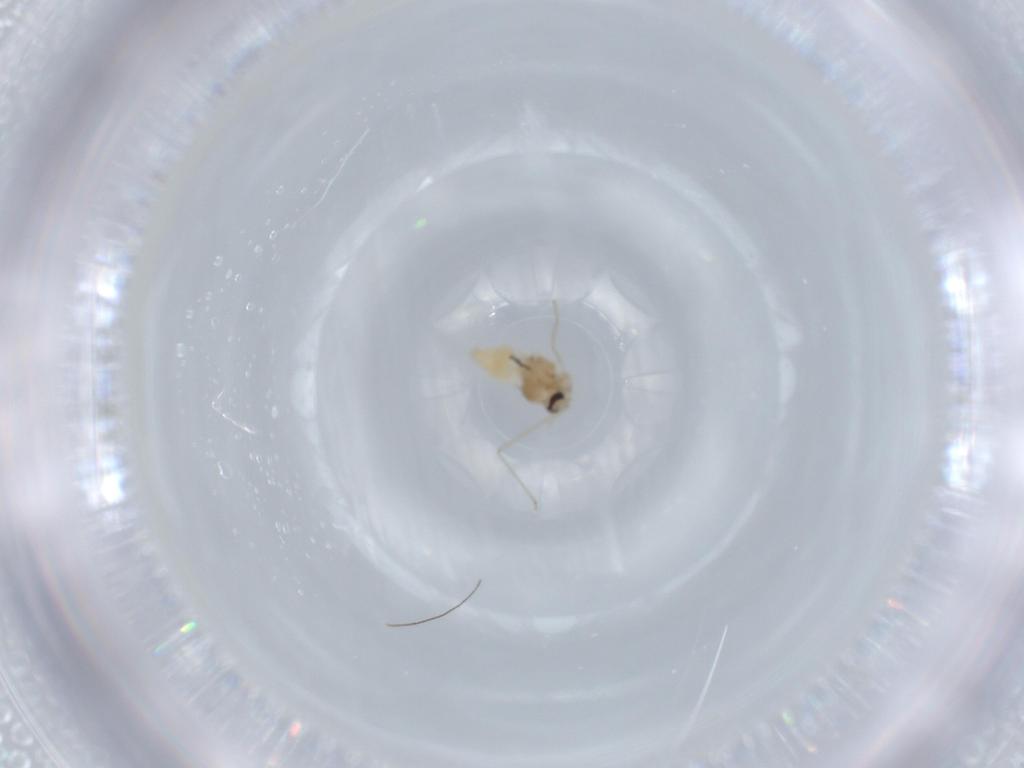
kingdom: Animalia
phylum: Arthropoda
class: Insecta
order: Diptera
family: Cecidomyiidae
